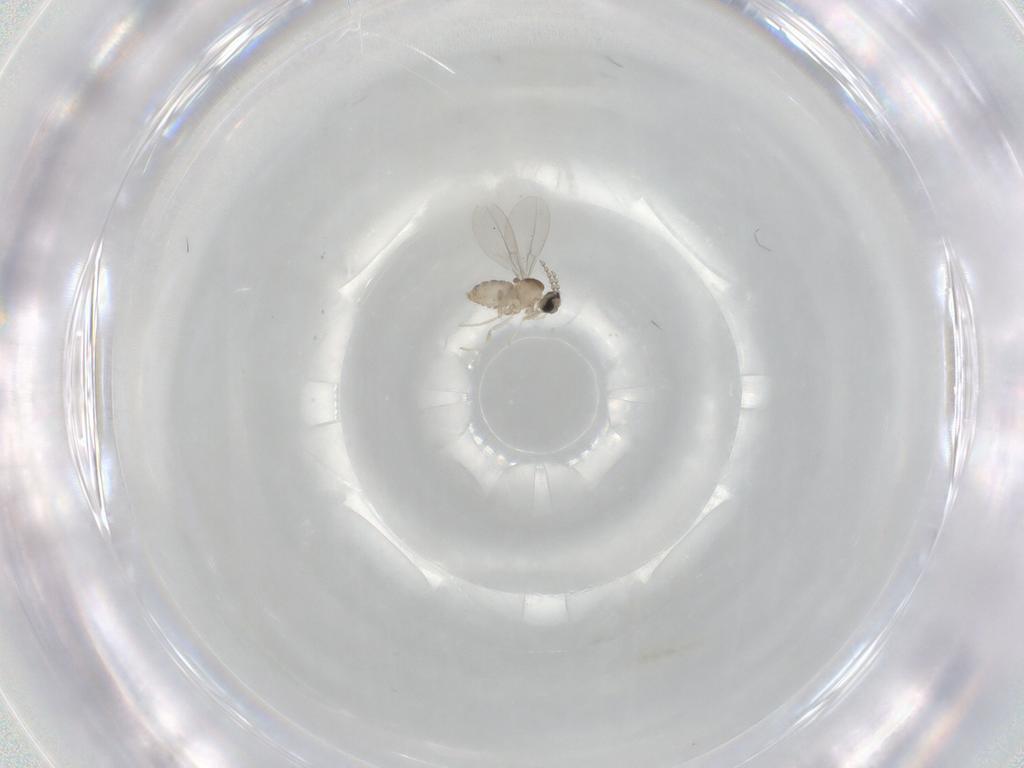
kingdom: Animalia
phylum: Arthropoda
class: Insecta
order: Diptera
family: Cecidomyiidae
